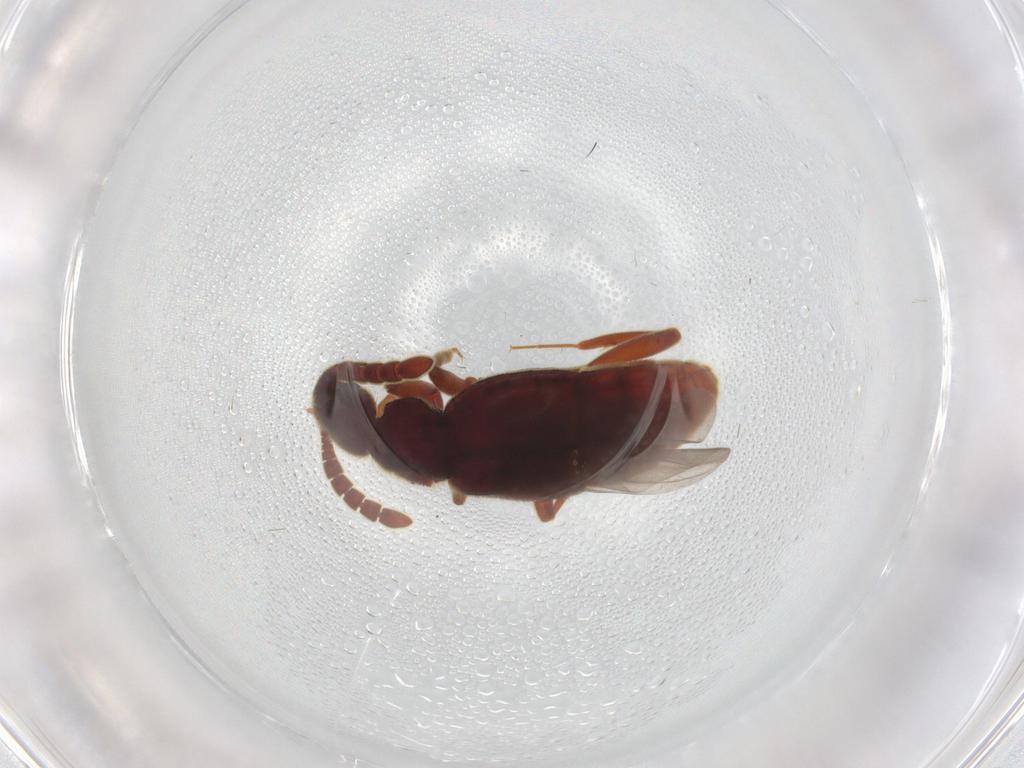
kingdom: Animalia
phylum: Arthropoda
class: Insecta
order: Coleoptera
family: Staphylinidae
